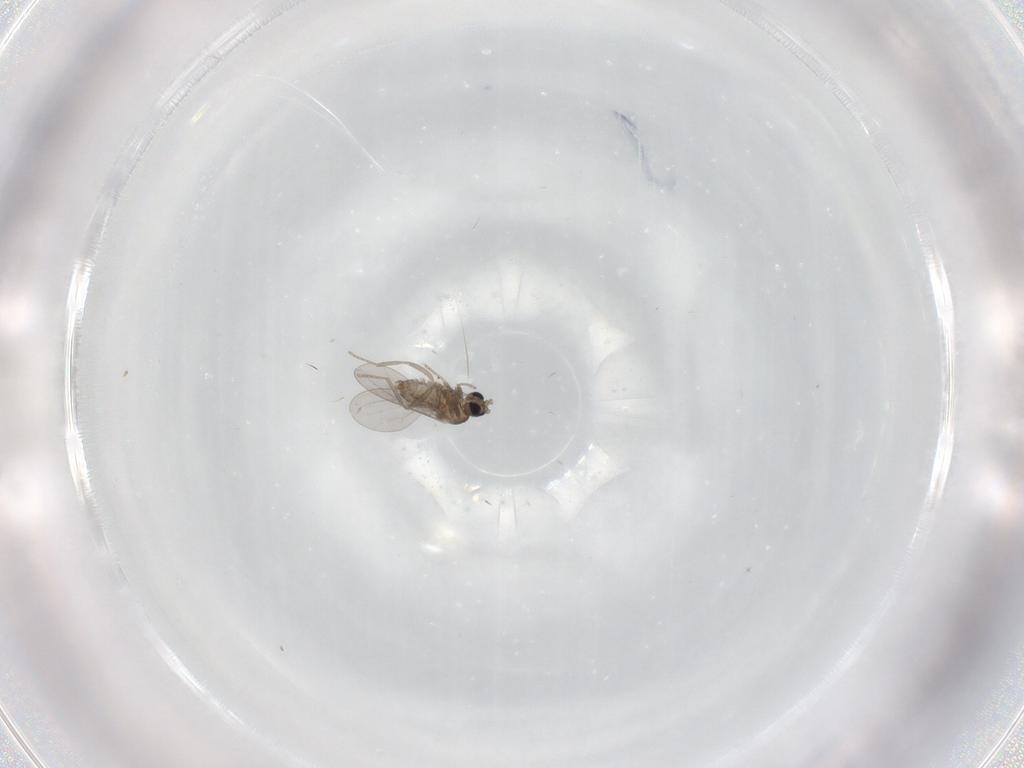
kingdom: Animalia
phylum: Arthropoda
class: Insecta
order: Diptera
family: Cecidomyiidae
